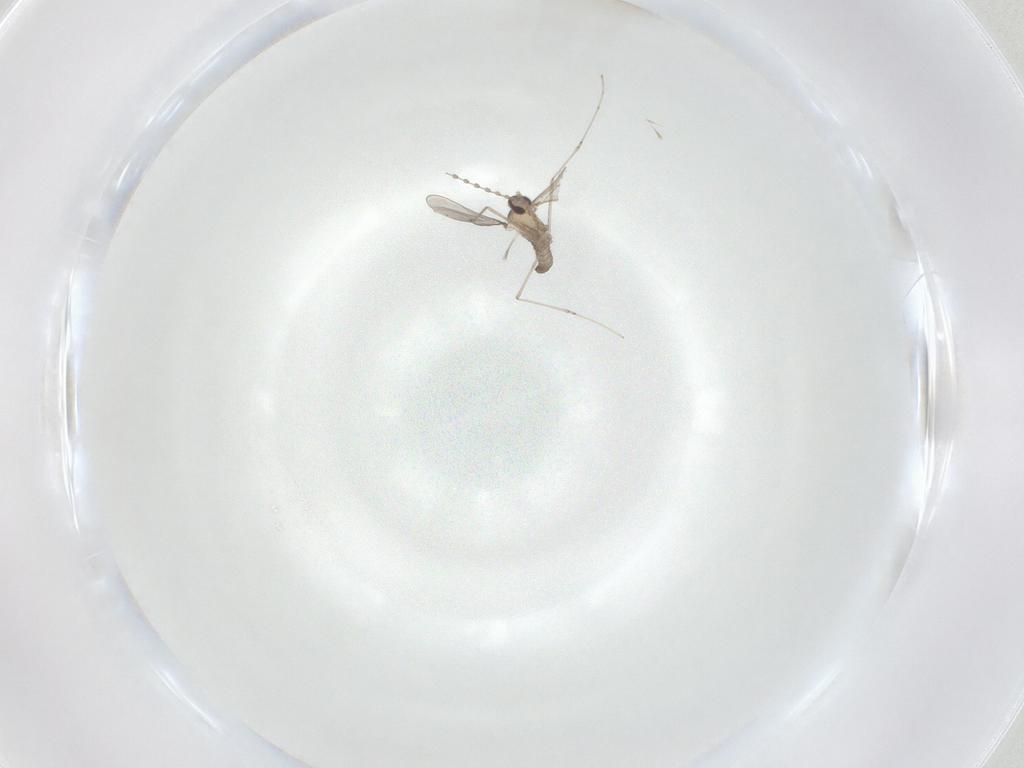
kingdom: Animalia
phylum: Arthropoda
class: Insecta
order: Diptera
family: Cecidomyiidae
